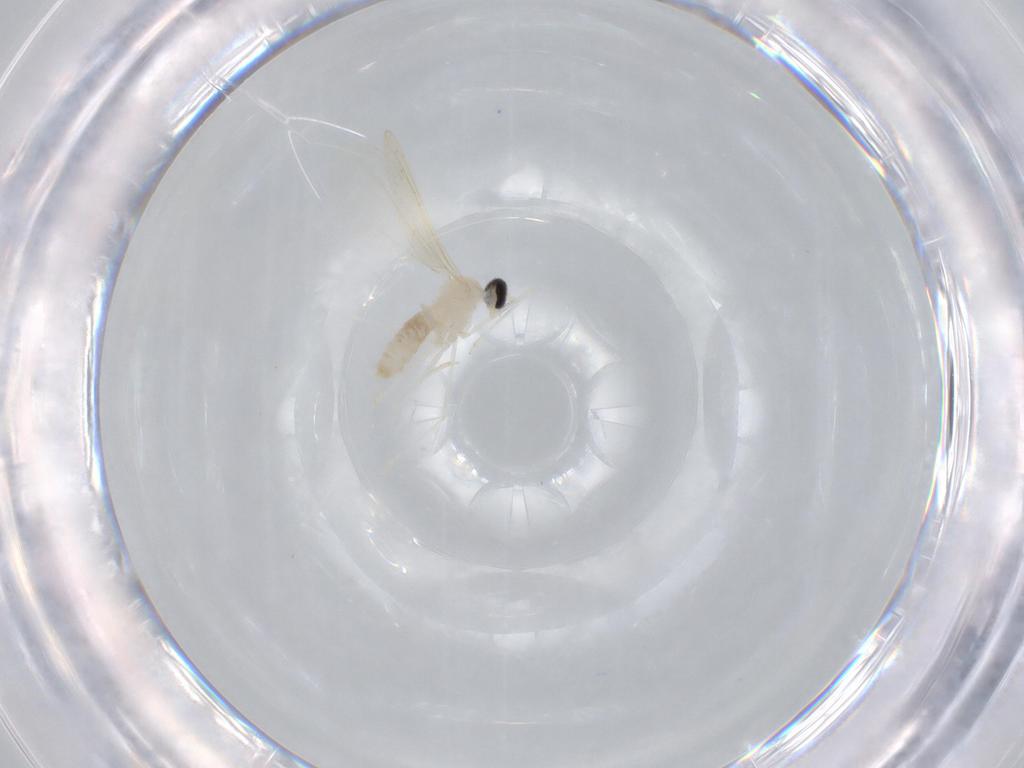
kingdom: Animalia
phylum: Arthropoda
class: Insecta
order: Diptera
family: Cecidomyiidae
